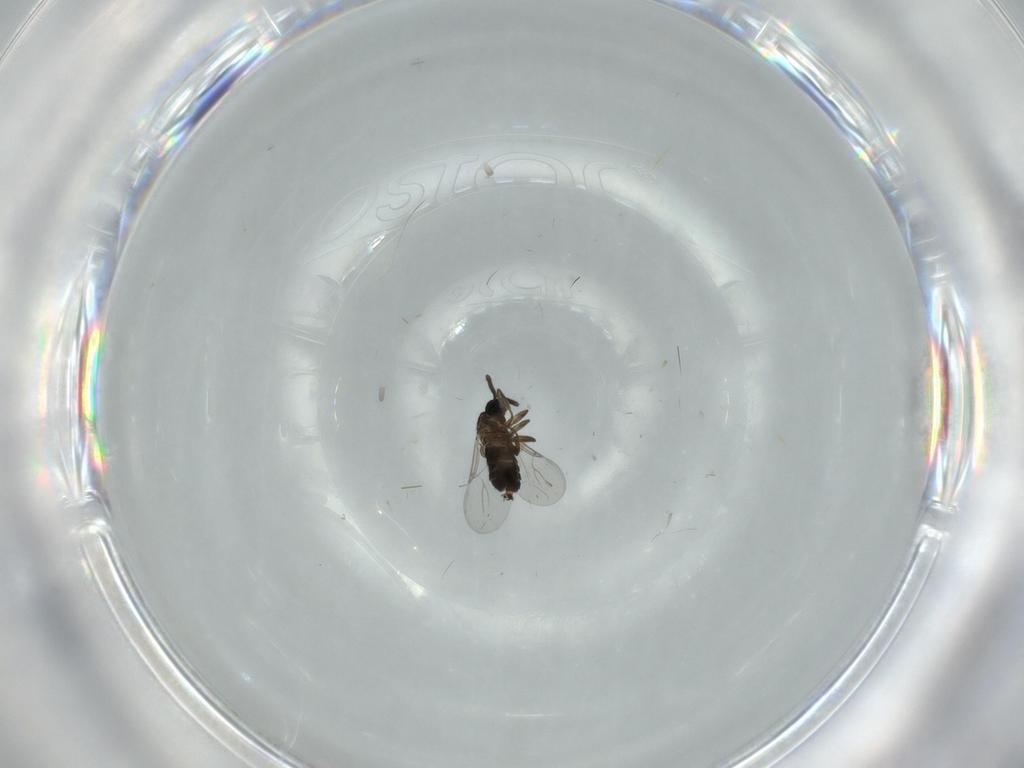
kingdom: Animalia
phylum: Arthropoda
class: Insecta
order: Diptera
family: Scatopsidae
